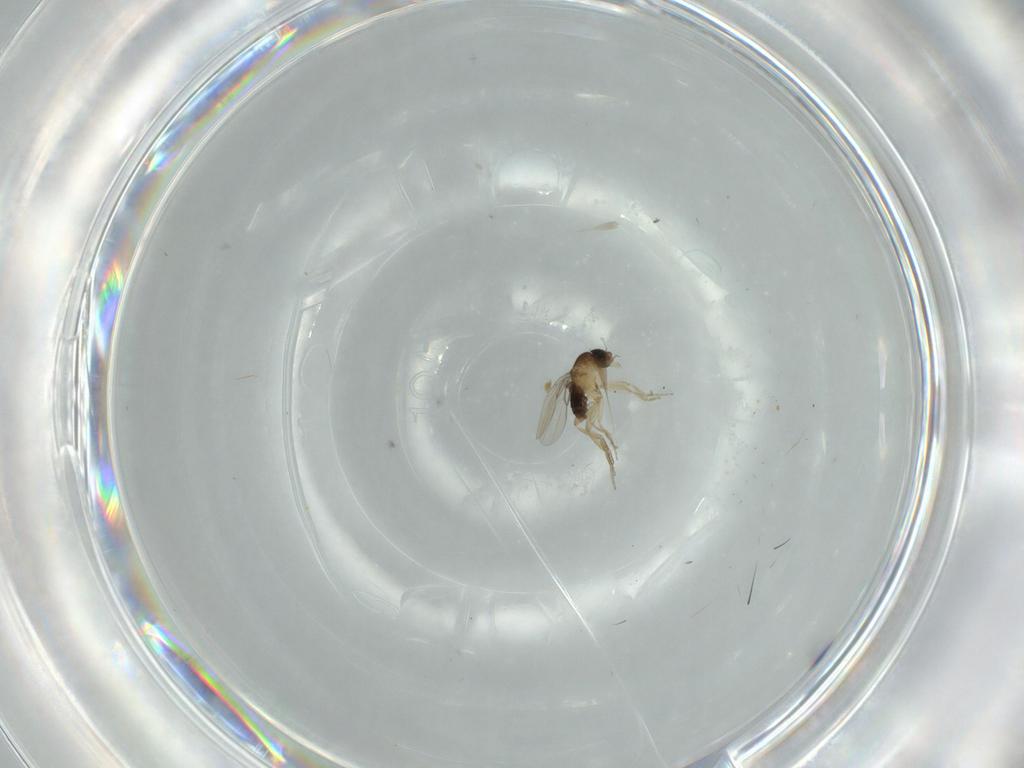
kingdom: Animalia
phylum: Arthropoda
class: Insecta
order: Diptera
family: Phoridae
